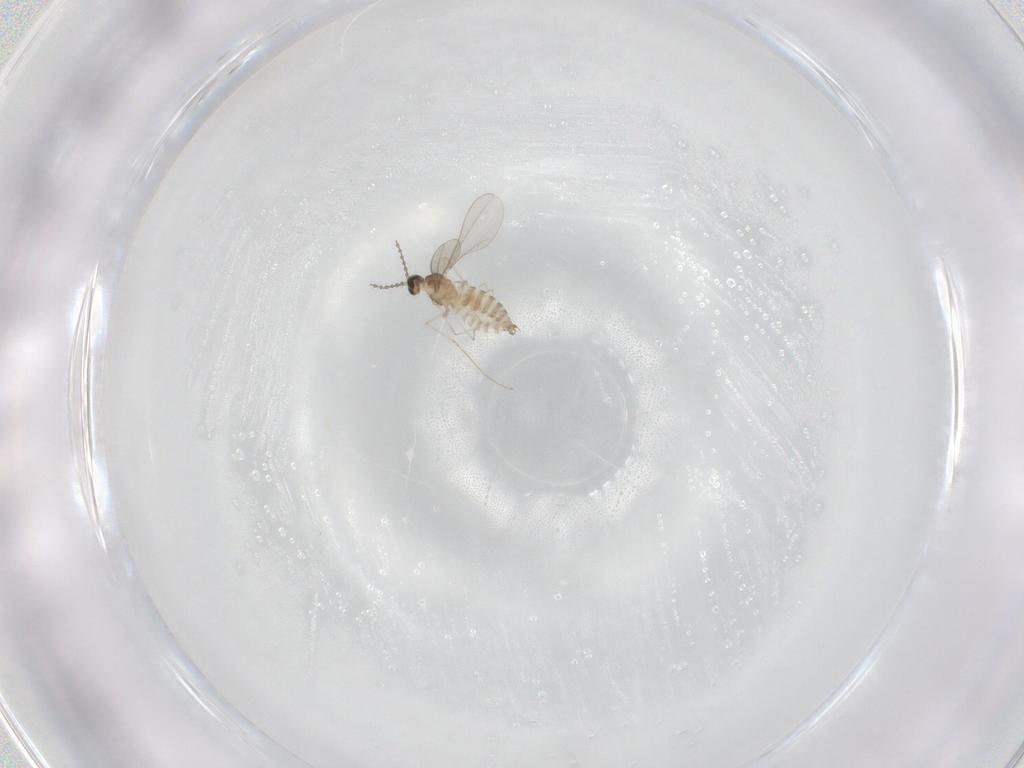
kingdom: Animalia
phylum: Arthropoda
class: Insecta
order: Diptera
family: Cecidomyiidae
